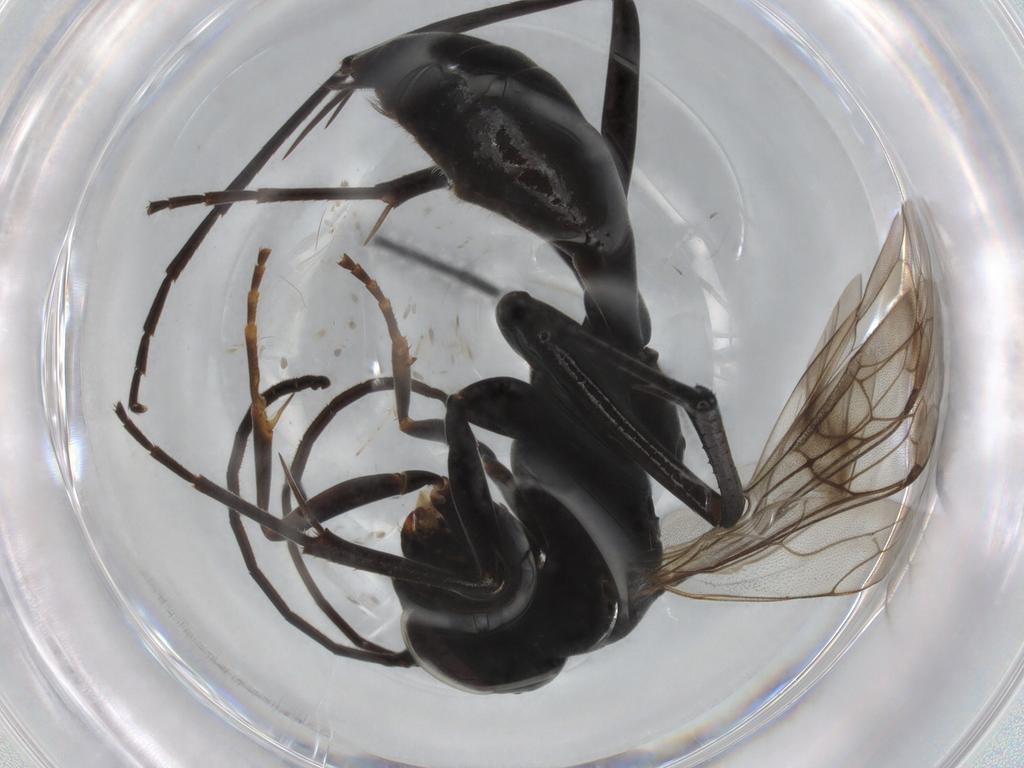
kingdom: Animalia
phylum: Arthropoda
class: Insecta
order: Hymenoptera
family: Pompilidae
